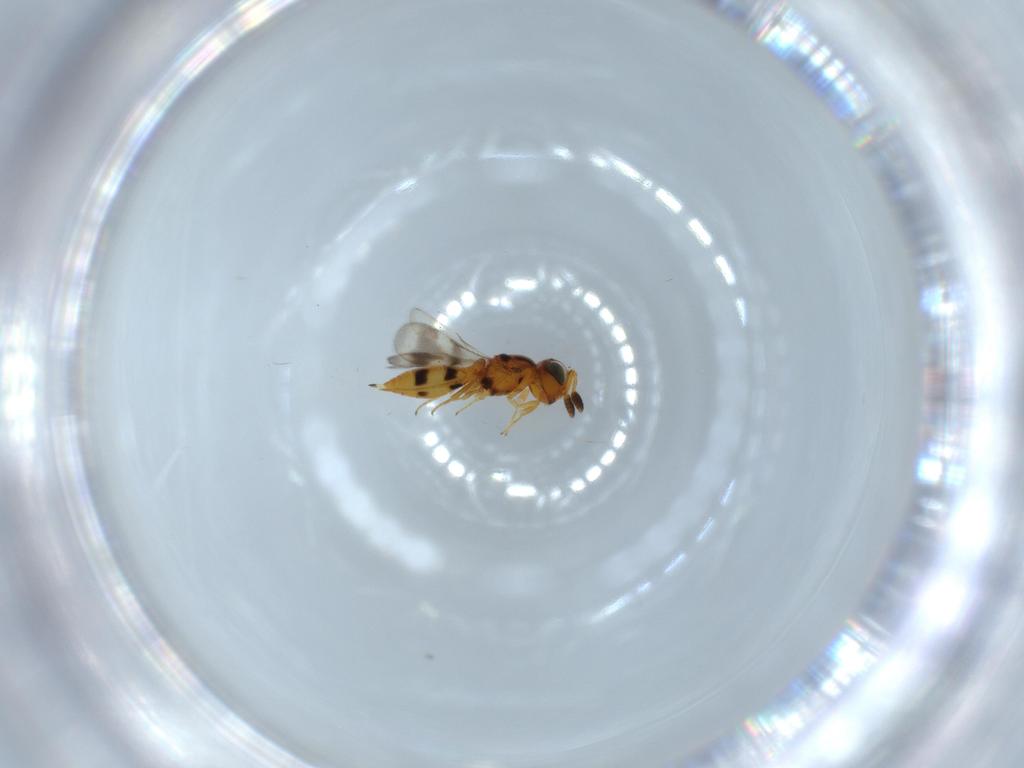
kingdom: Animalia
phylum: Arthropoda
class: Insecta
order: Hymenoptera
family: Scelionidae
